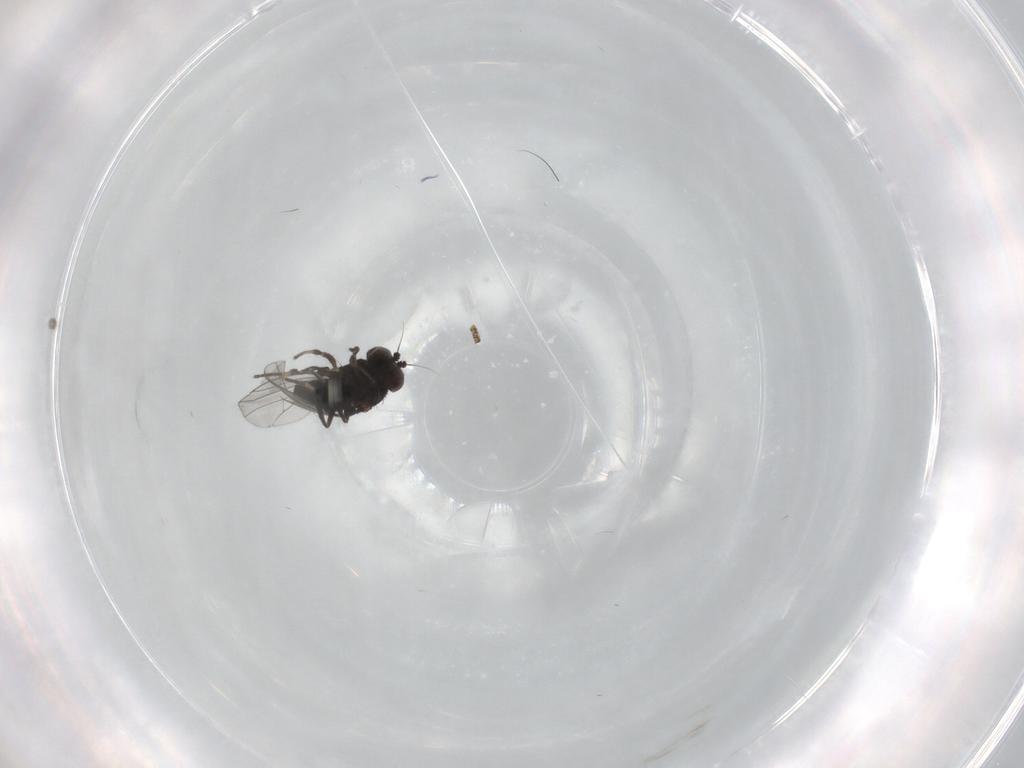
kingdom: Animalia
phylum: Arthropoda
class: Insecta
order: Diptera
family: Dolichopodidae
